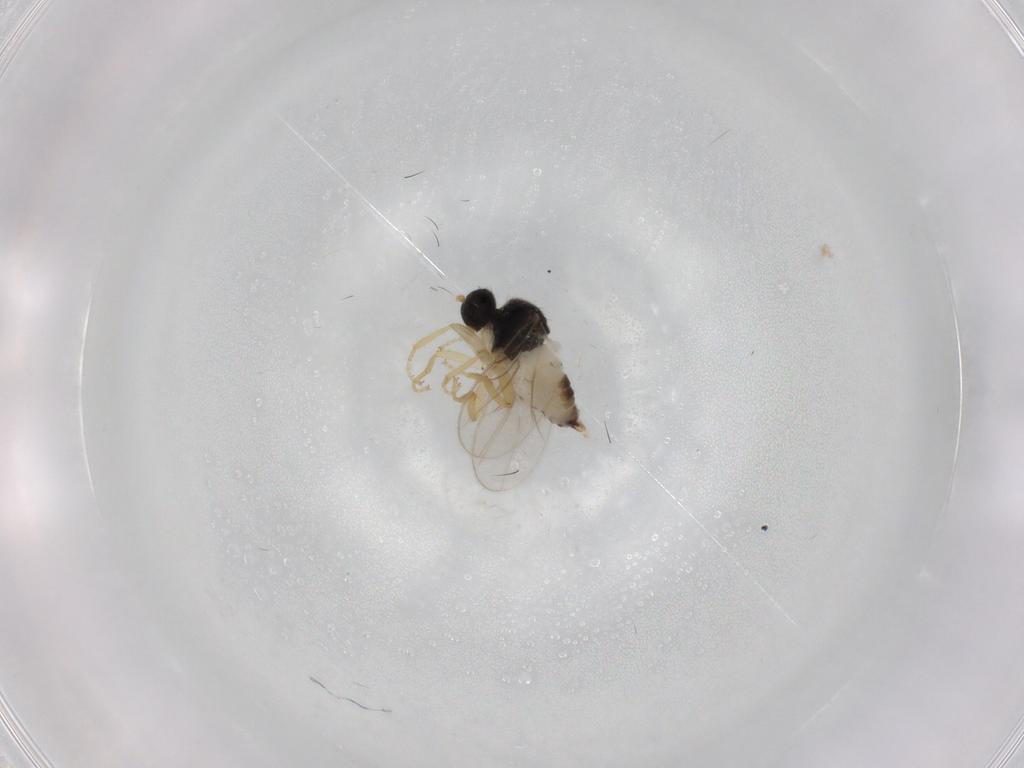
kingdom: Animalia
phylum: Arthropoda
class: Insecta
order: Diptera
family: Hybotidae
